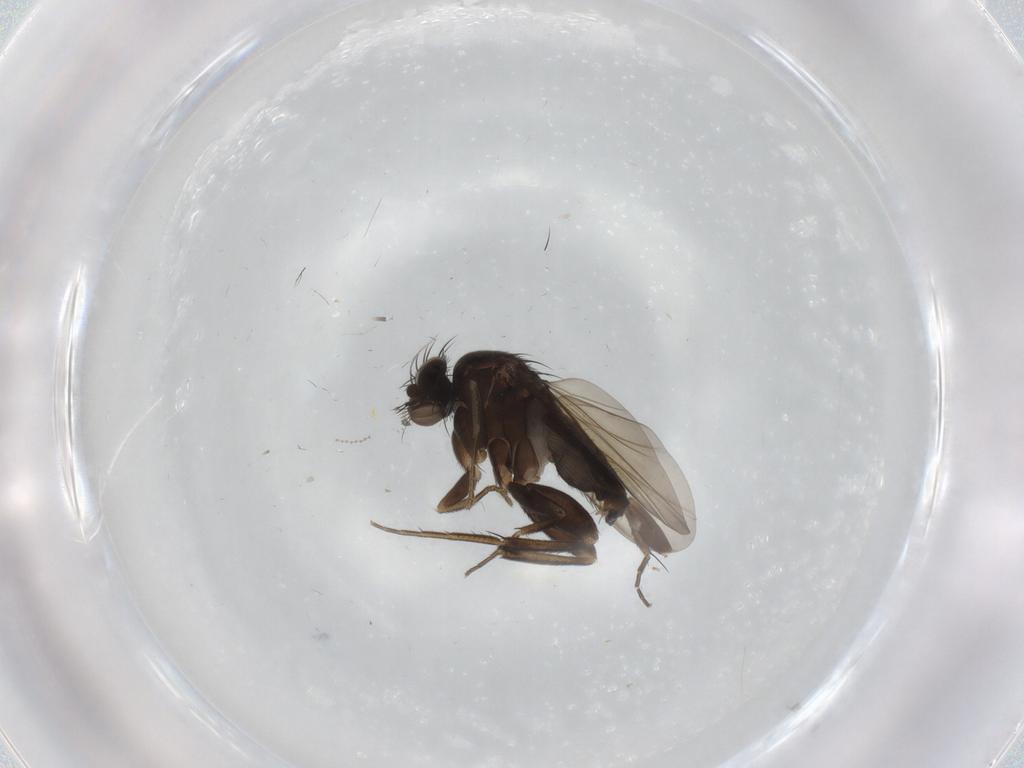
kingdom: Animalia
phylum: Arthropoda
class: Insecta
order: Diptera
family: Phoridae
